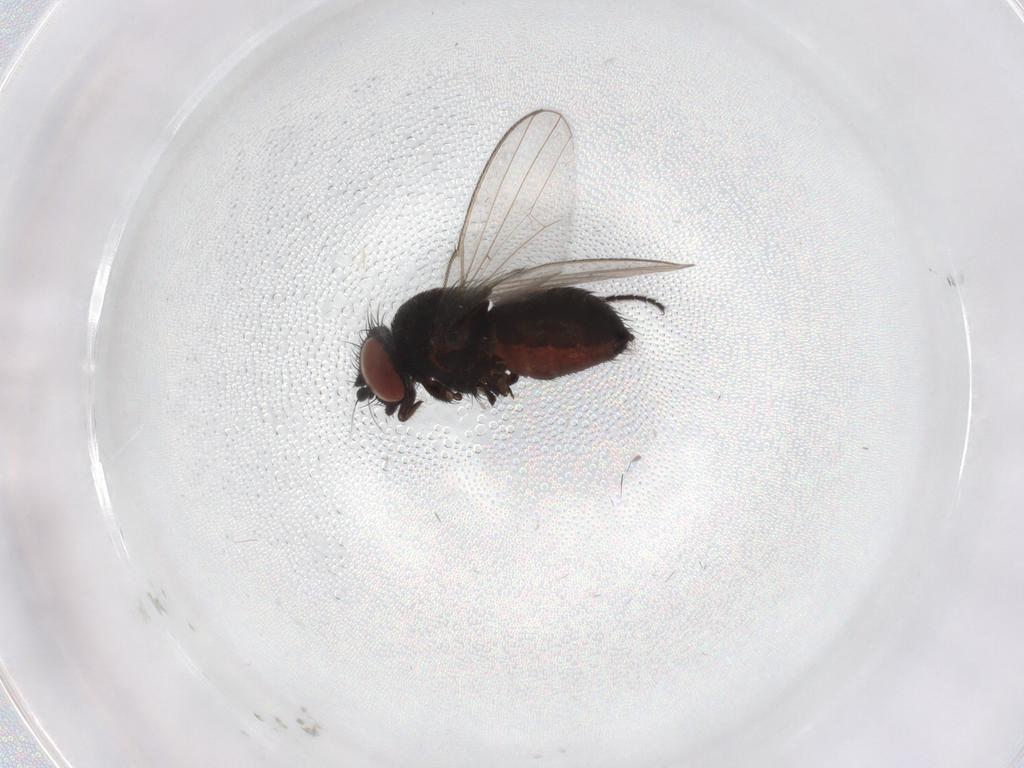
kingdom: Animalia
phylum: Arthropoda
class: Insecta
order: Diptera
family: Milichiidae
